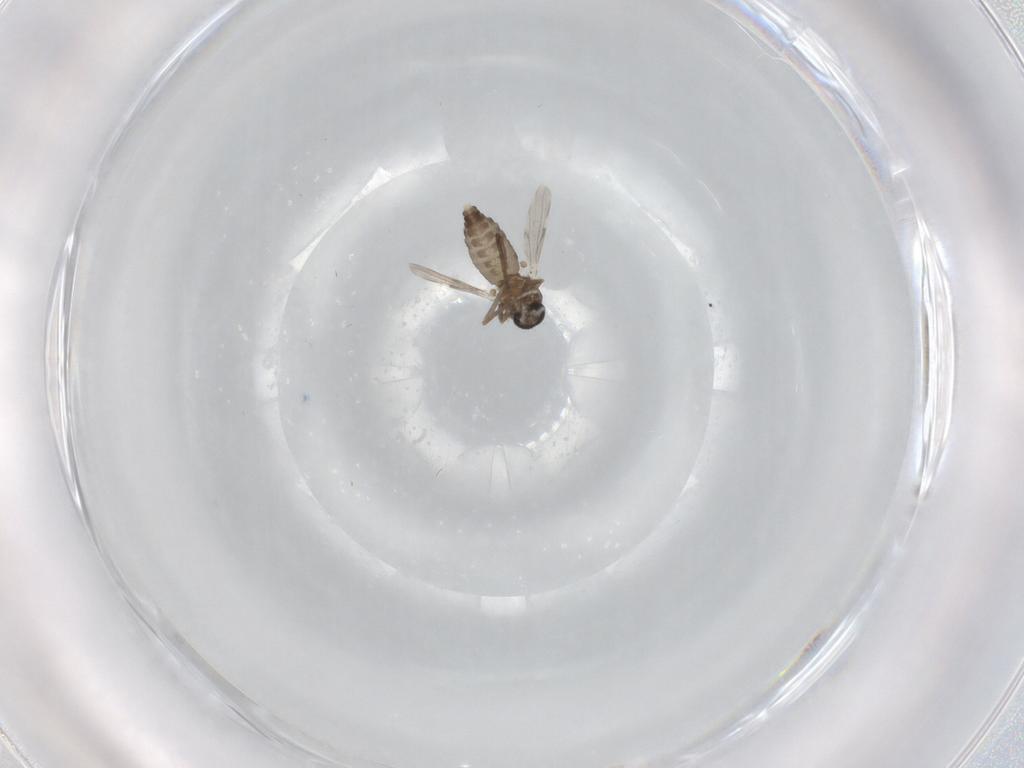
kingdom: Animalia
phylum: Arthropoda
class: Insecta
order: Diptera
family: Ceratopogonidae
